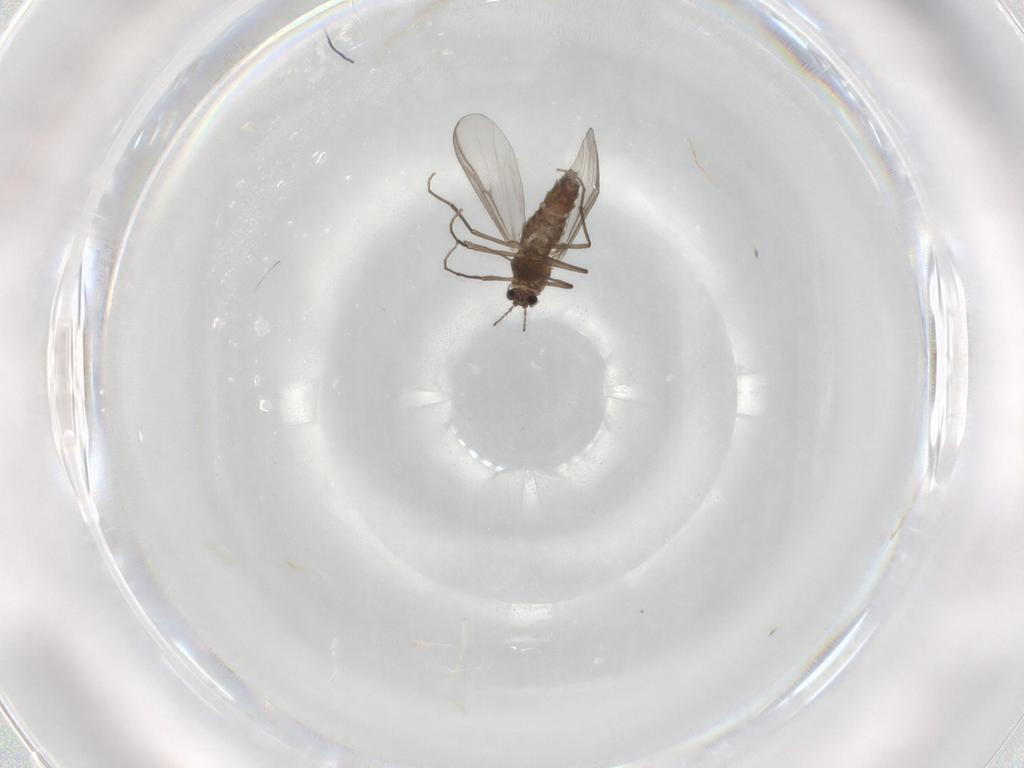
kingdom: Animalia
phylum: Arthropoda
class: Insecta
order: Diptera
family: Chironomidae
